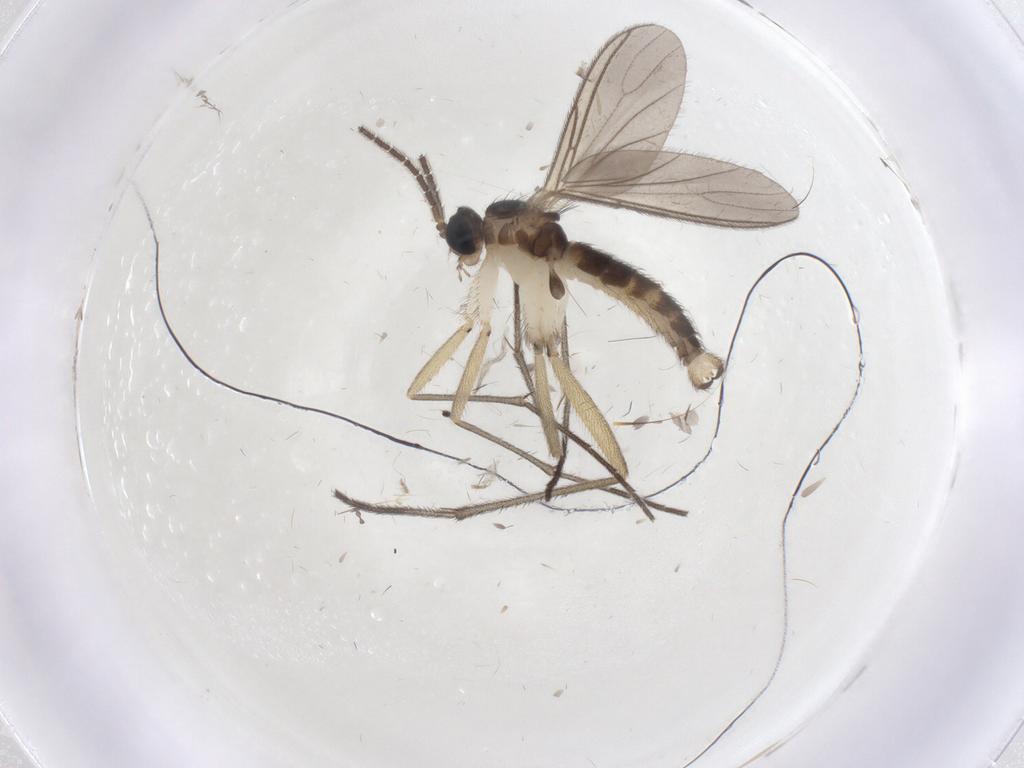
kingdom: Animalia
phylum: Arthropoda
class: Insecta
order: Diptera
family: Sciaridae
